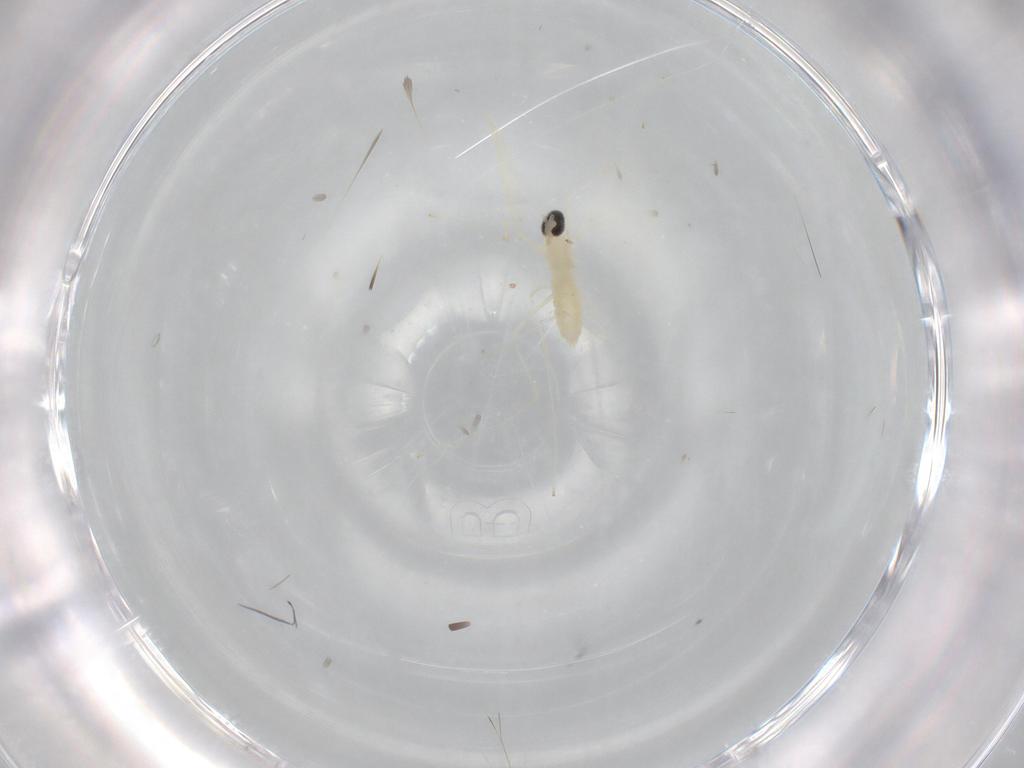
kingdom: Animalia
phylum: Arthropoda
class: Insecta
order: Diptera
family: Cecidomyiidae
